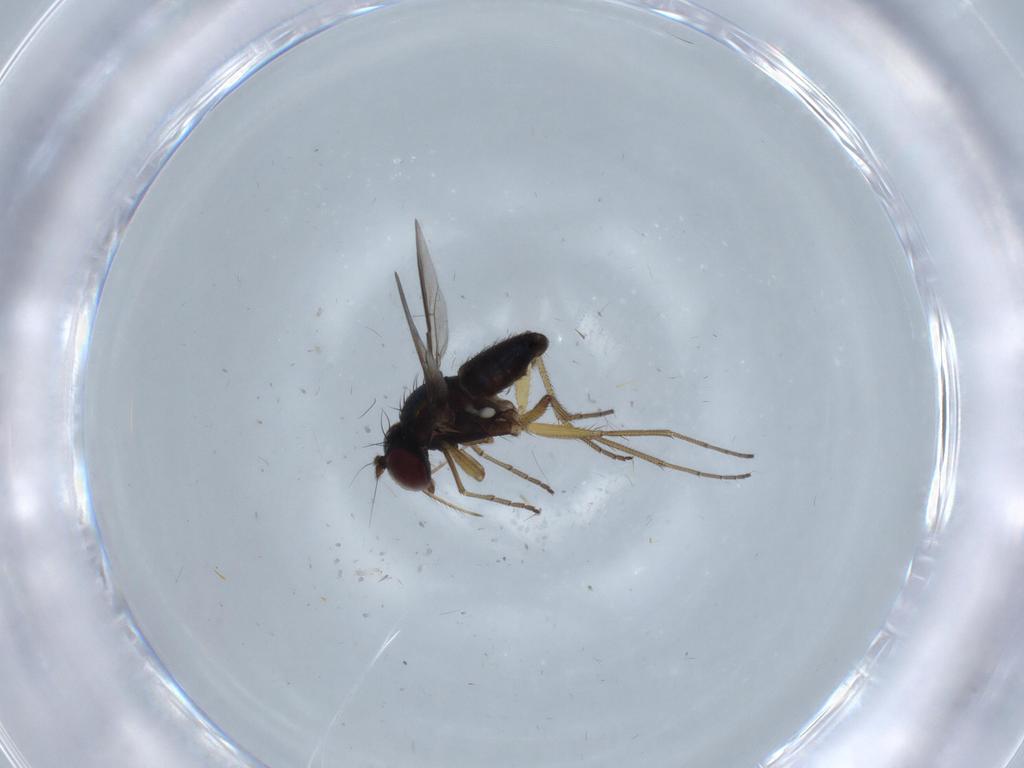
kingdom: Animalia
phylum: Arthropoda
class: Insecta
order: Diptera
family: Dolichopodidae
